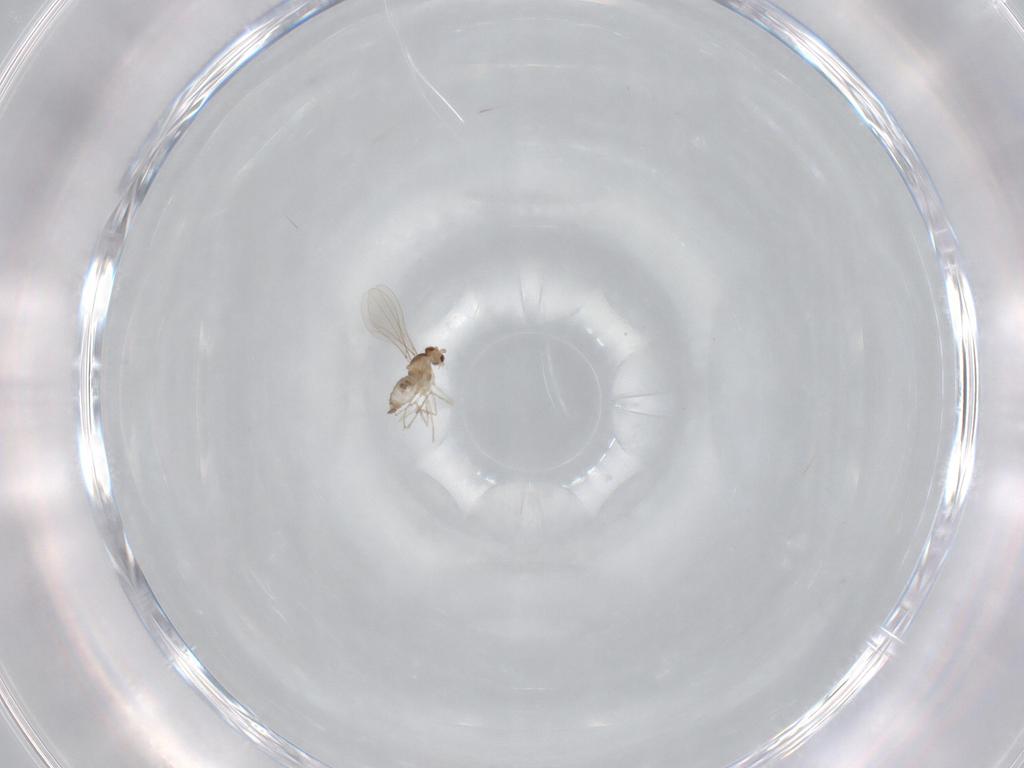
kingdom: Animalia
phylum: Arthropoda
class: Insecta
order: Diptera
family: Cecidomyiidae
